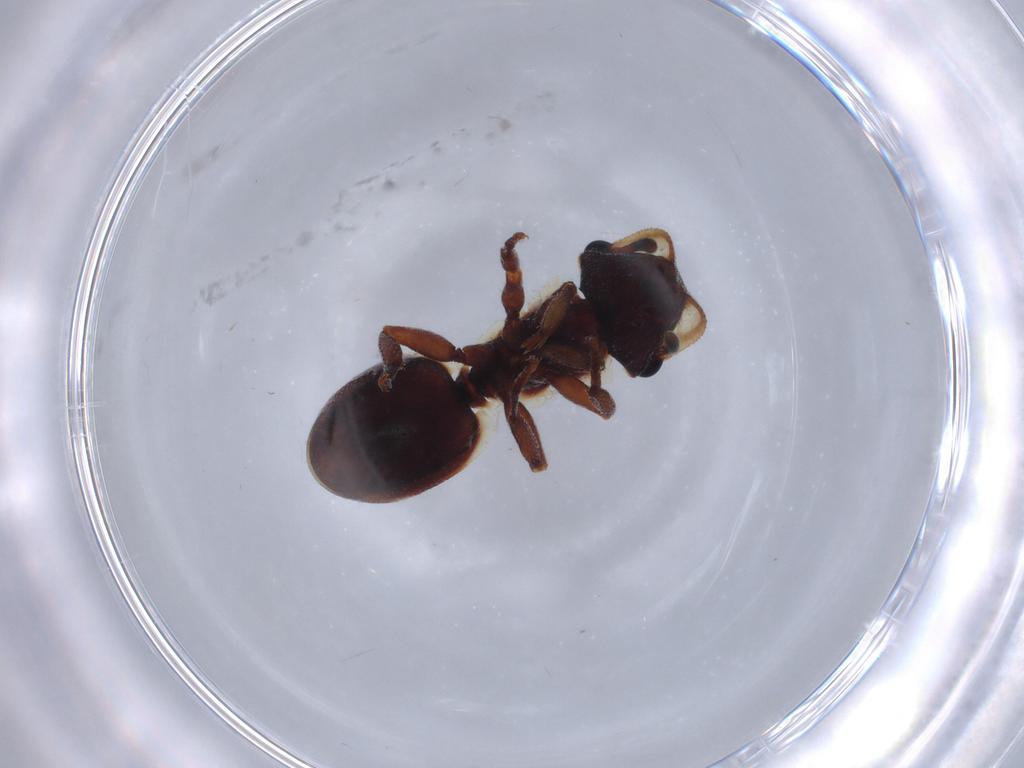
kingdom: Animalia
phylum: Arthropoda
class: Insecta
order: Hymenoptera
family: Formicidae
